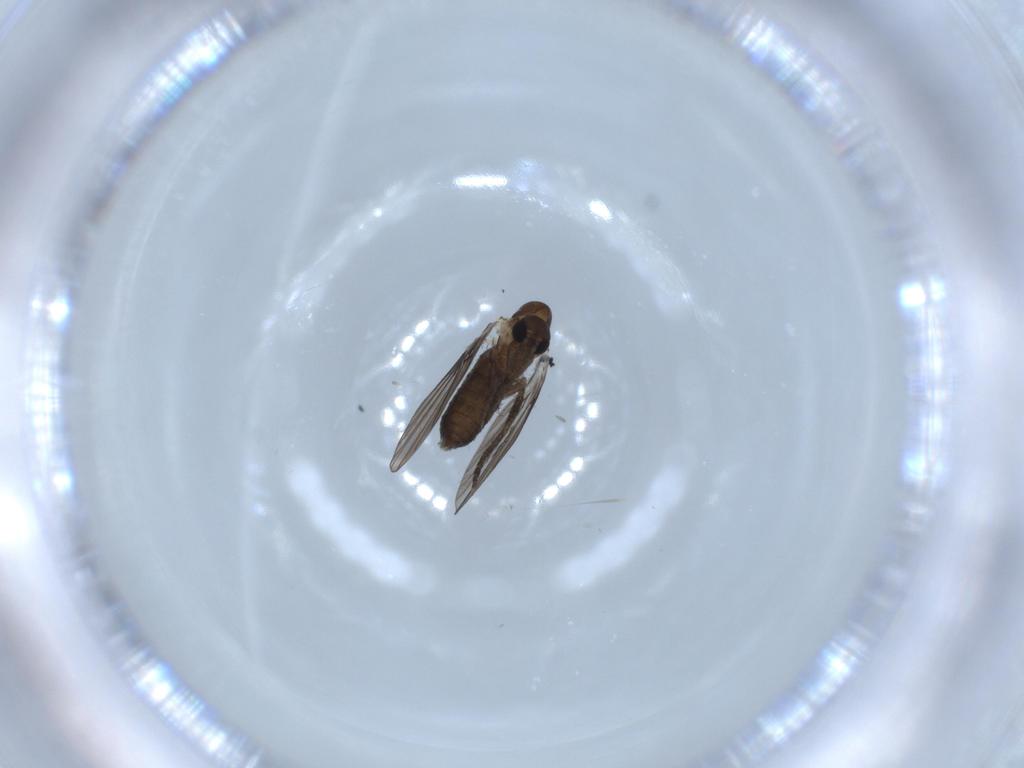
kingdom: Animalia
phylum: Arthropoda
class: Insecta
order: Diptera
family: Psychodidae
